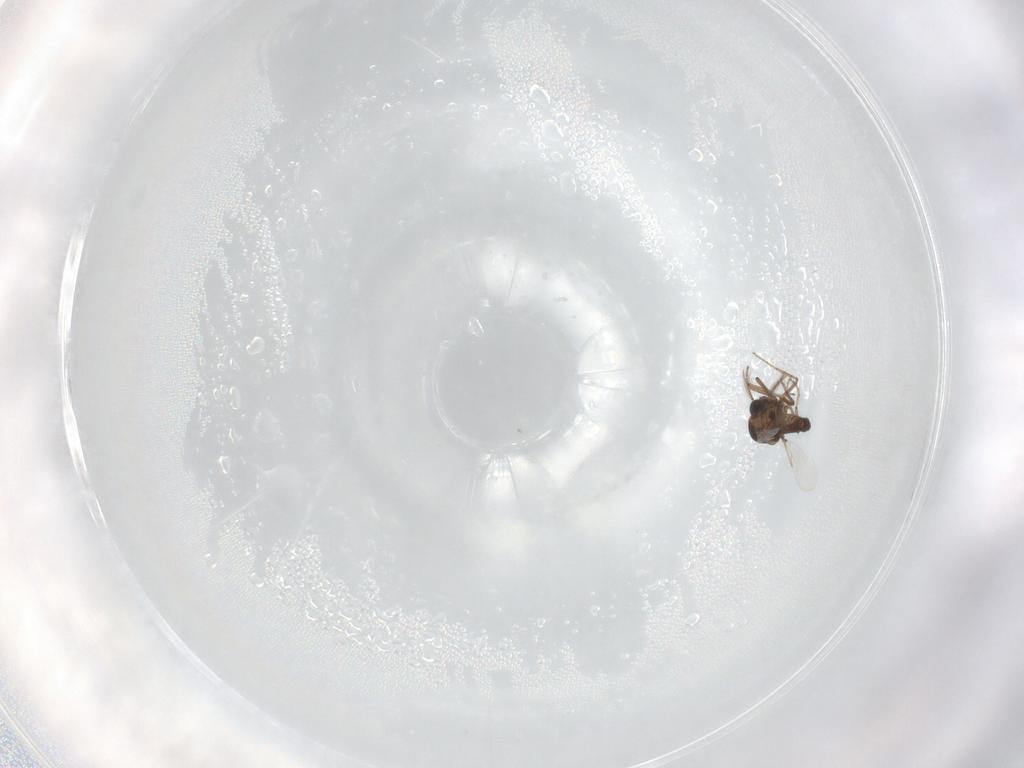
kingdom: Animalia
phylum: Arthropoda
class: Insecta
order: Diptera
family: Ceratopogonidae
